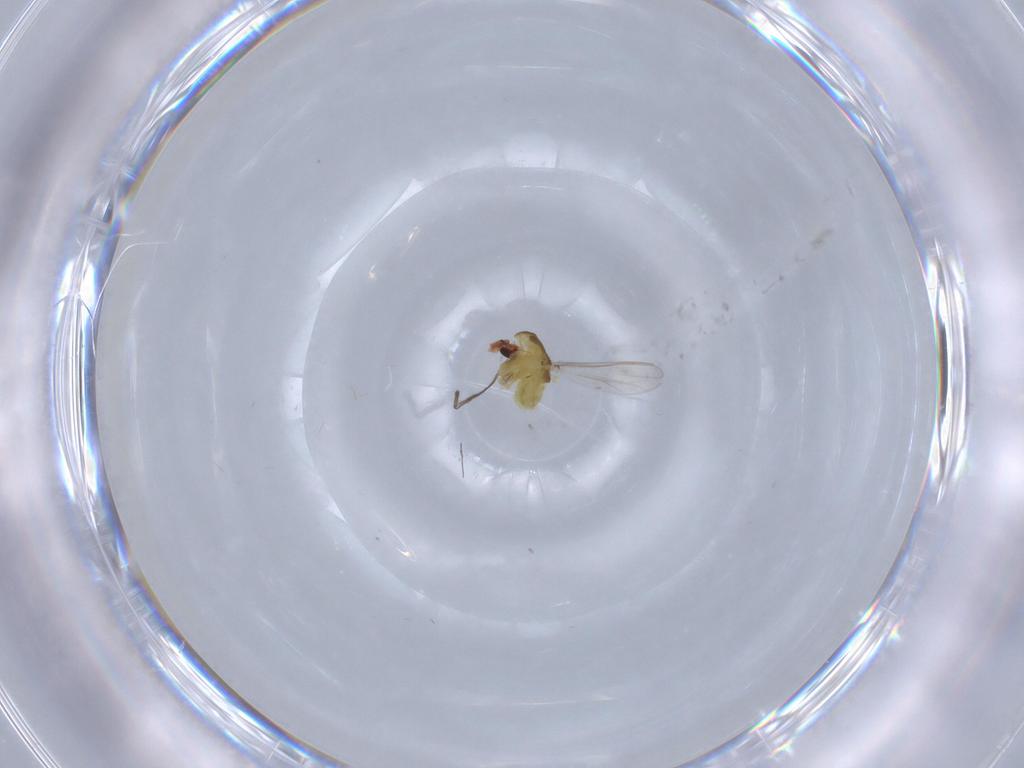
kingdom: Animalia
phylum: Arthropoda
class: Insecta
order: Diptera
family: Chironomidae
